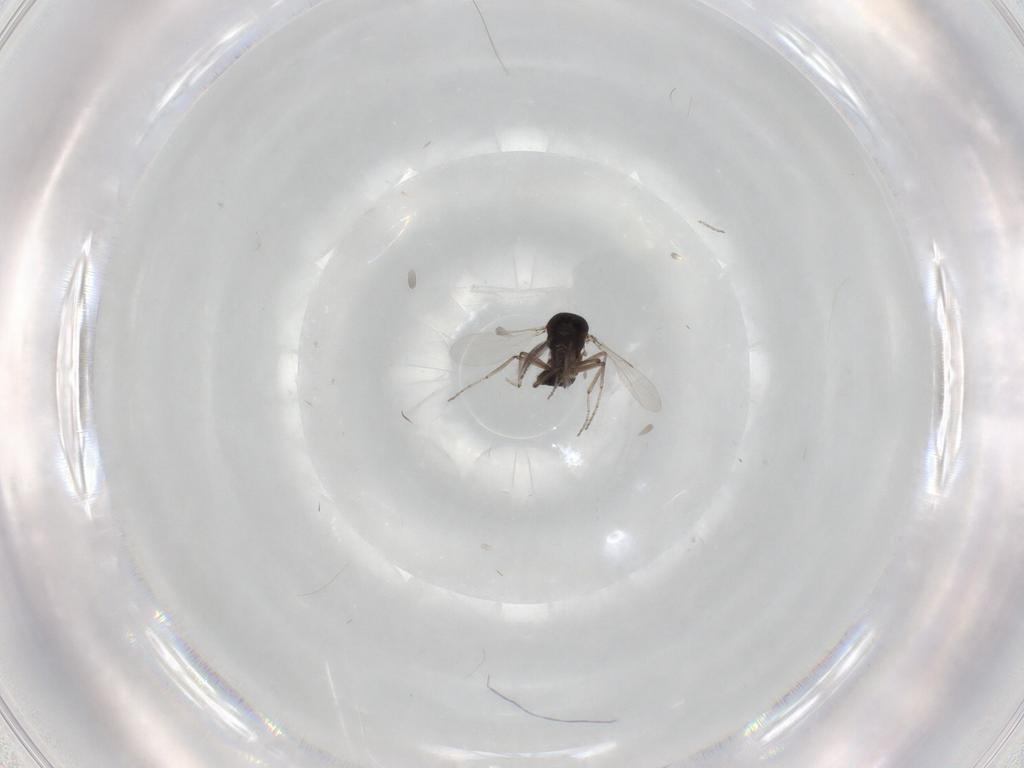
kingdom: Animalia
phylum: Arthropoda
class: Insecta
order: Diptera
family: Ceratopogonidae
